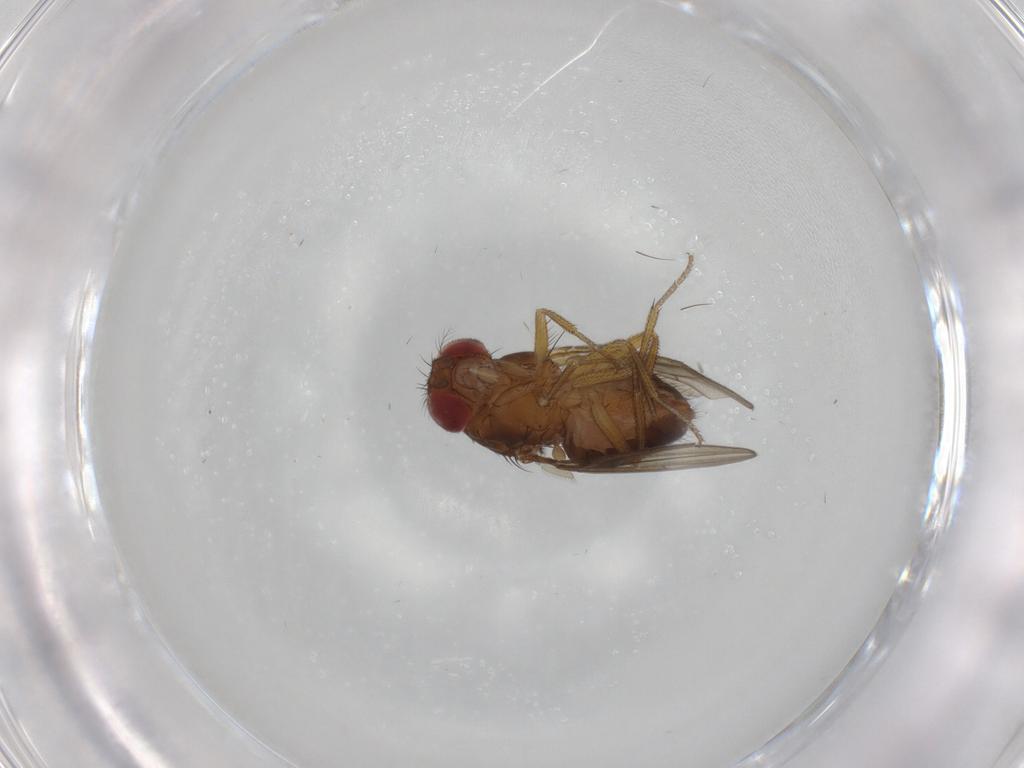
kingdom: Animalia
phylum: Arthropoda
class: Insecta
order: Diptera
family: Drosophilidae
